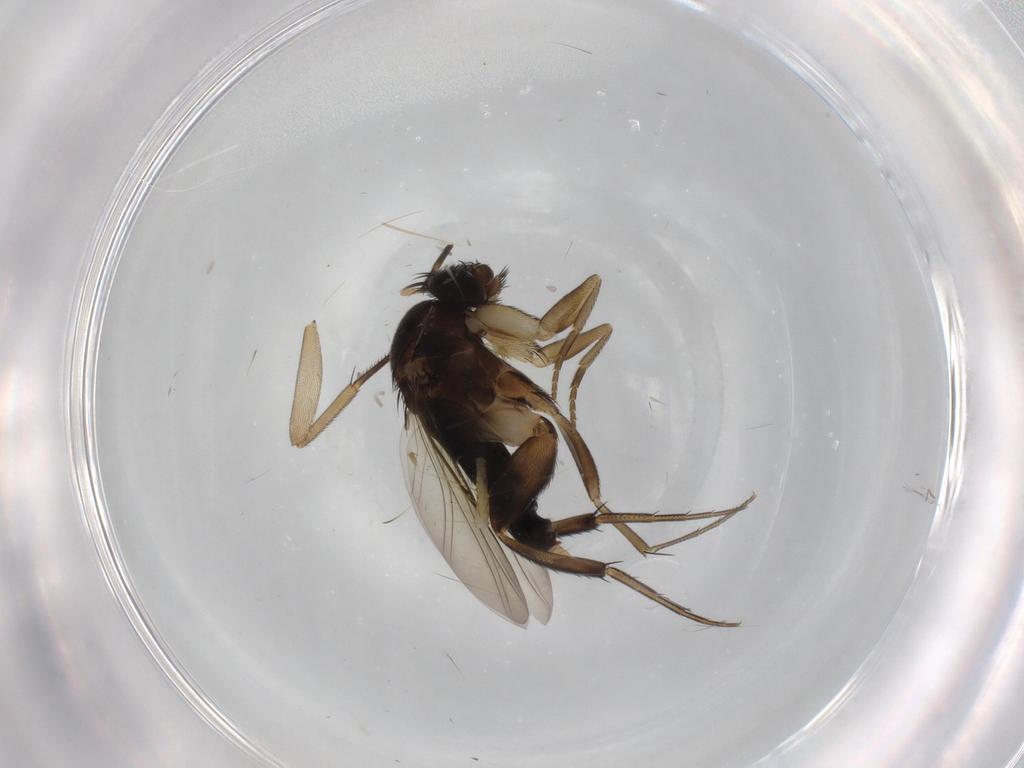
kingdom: Animalia
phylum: Arthropoda
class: Insecta
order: Diptera
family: Phoridae
